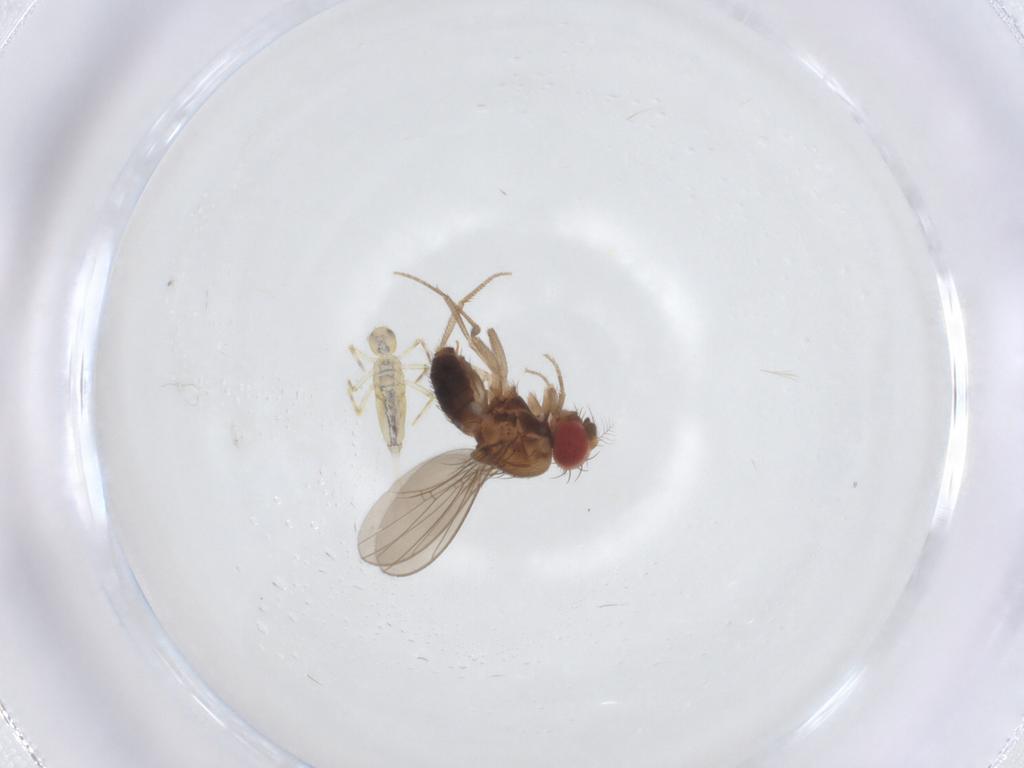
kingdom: Animalia
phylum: Arthropoda
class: Insecta
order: Diptera
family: Drosophilidae
